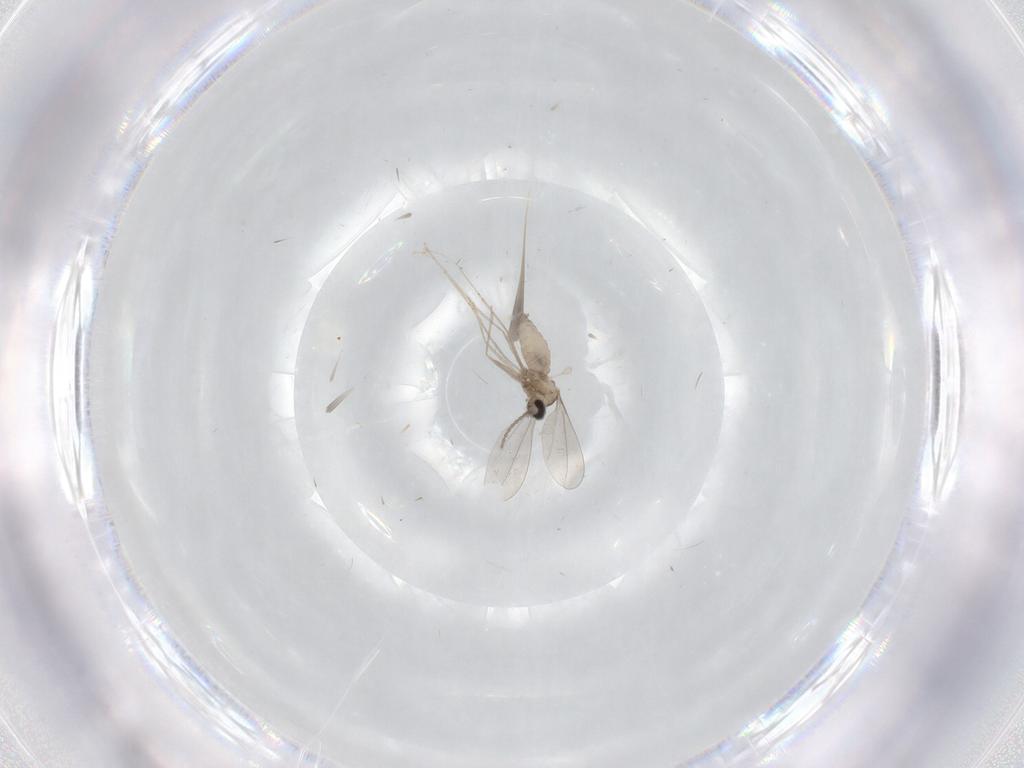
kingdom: Animalia
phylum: Arthropoda
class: Insecta
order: Diptera
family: Cecidomyiidae
